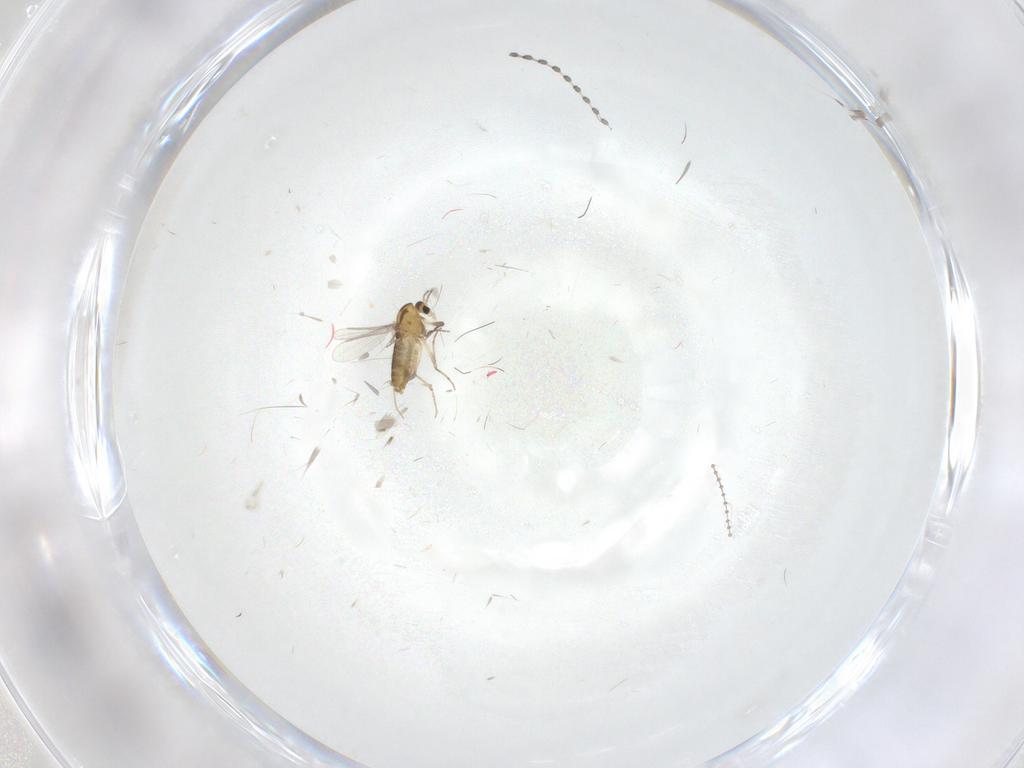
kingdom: Animalia
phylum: Arthropoda
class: Insecta
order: Diptera
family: Chironomidae
